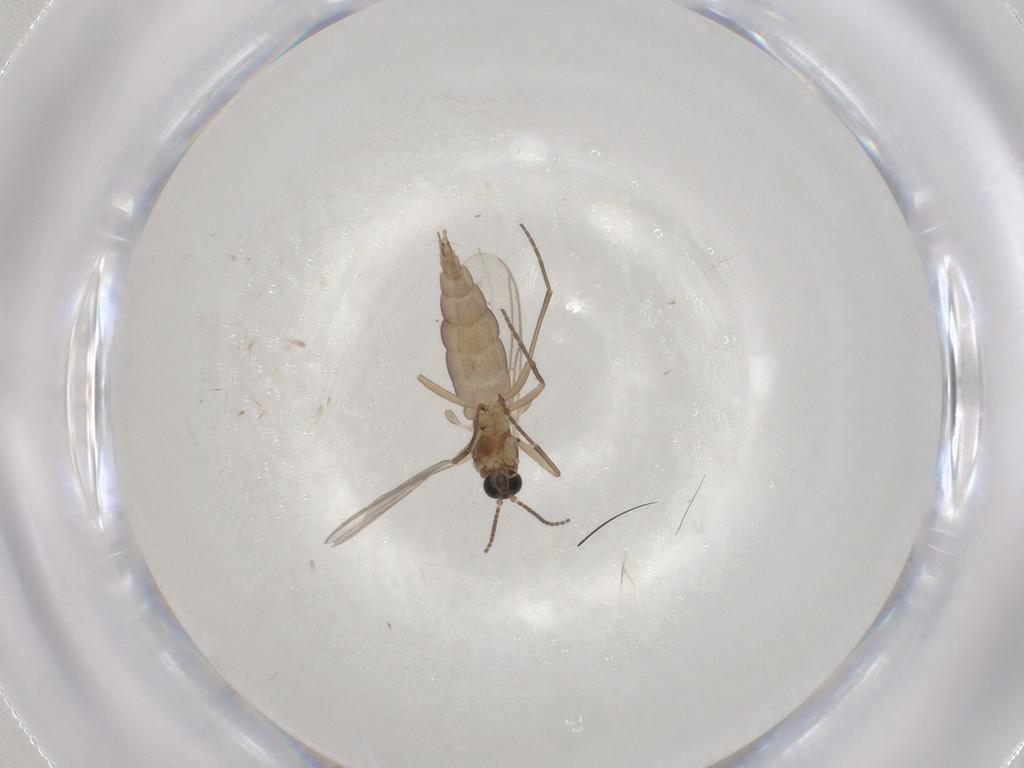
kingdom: Animalia
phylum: Arthropoda
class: Insecta
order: Diptera
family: Sciaridae
